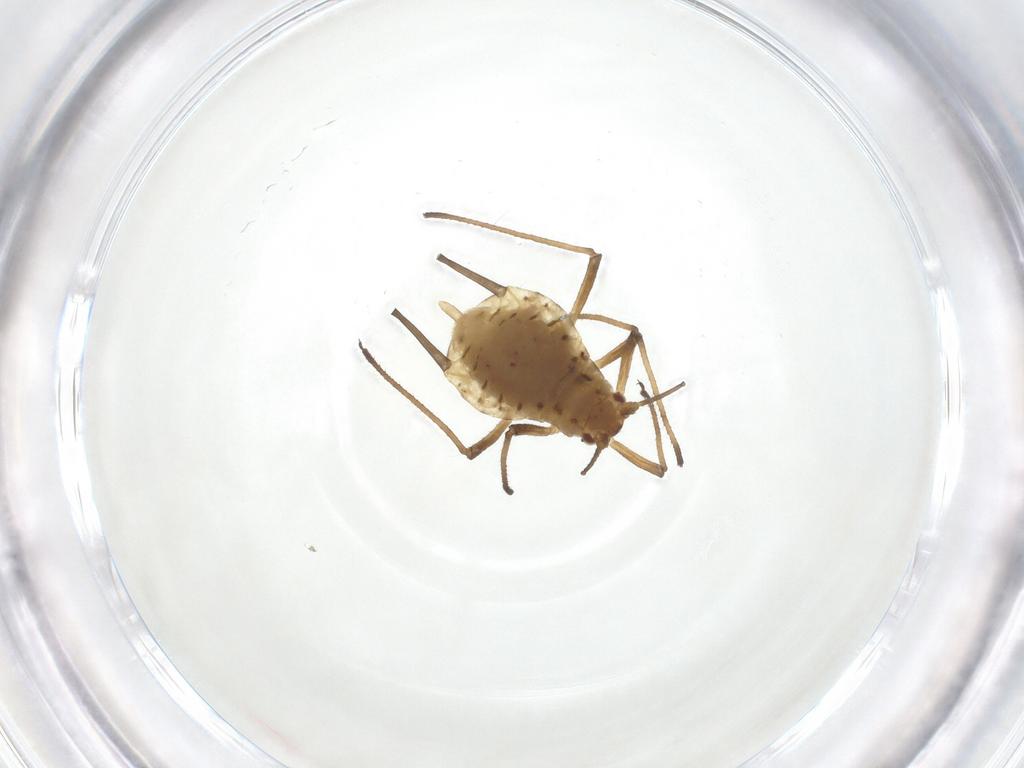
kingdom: Animalia
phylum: Arthropoda
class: Insecta
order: Hemiptera
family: Aphididae
